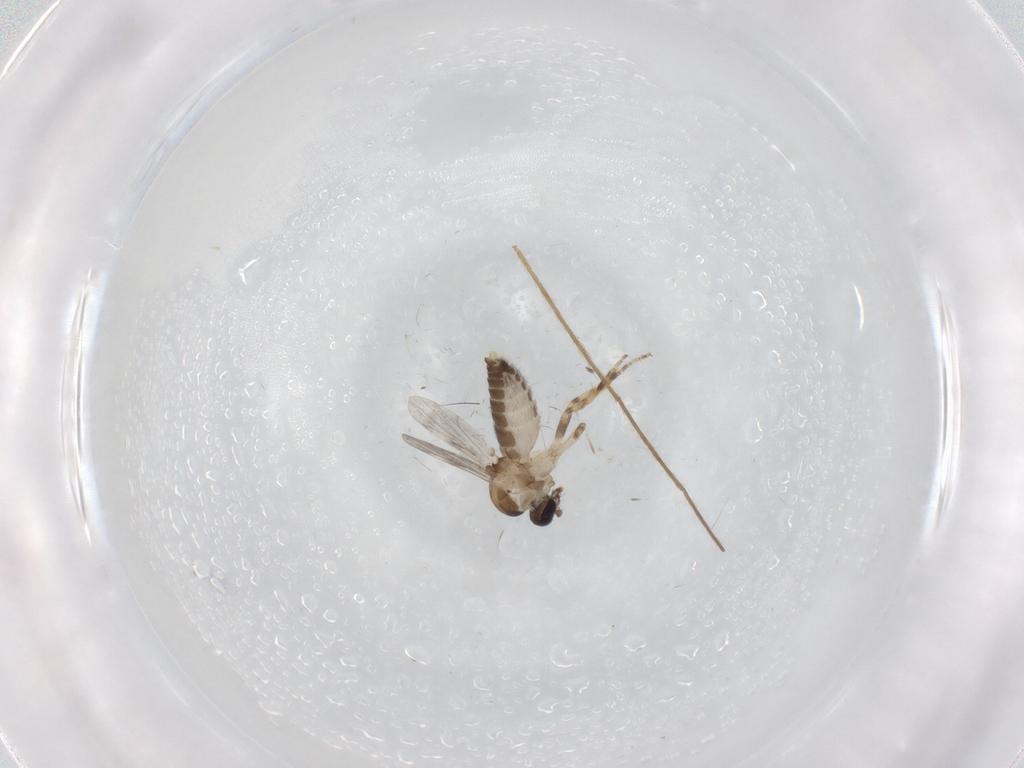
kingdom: Animalia
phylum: Arthropoda
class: Insecta
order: Diptera
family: Ceratopogonidae
